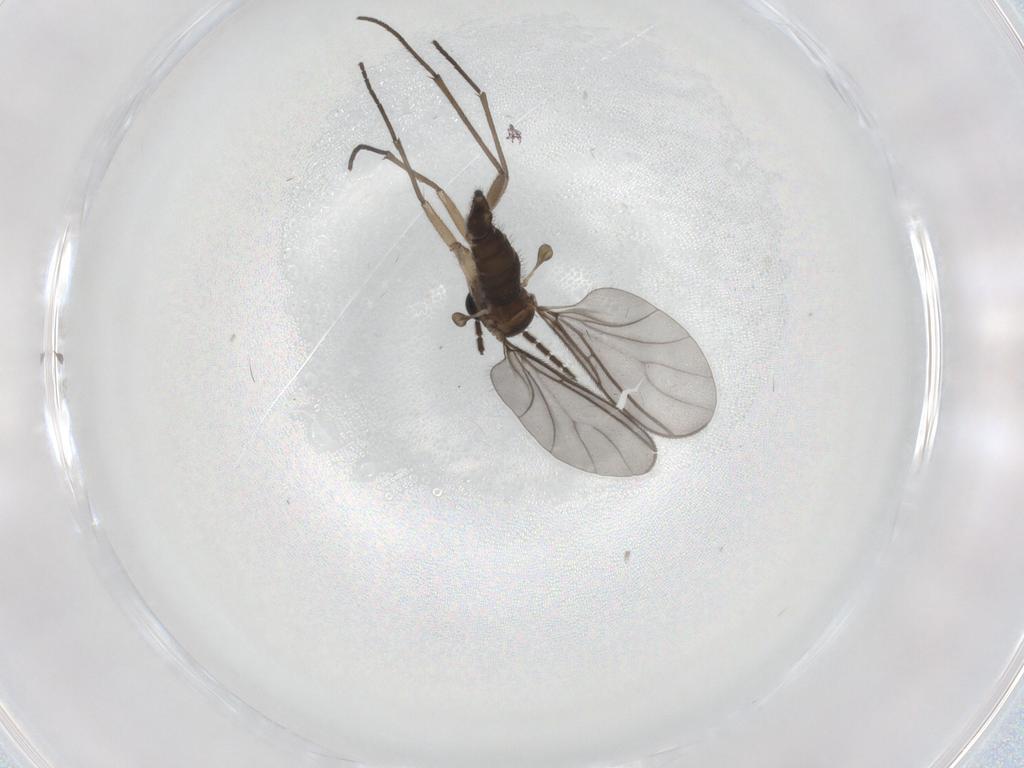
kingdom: Animalia
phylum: Arthropoda
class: Insecta
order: Diptera
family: Sciaridae
